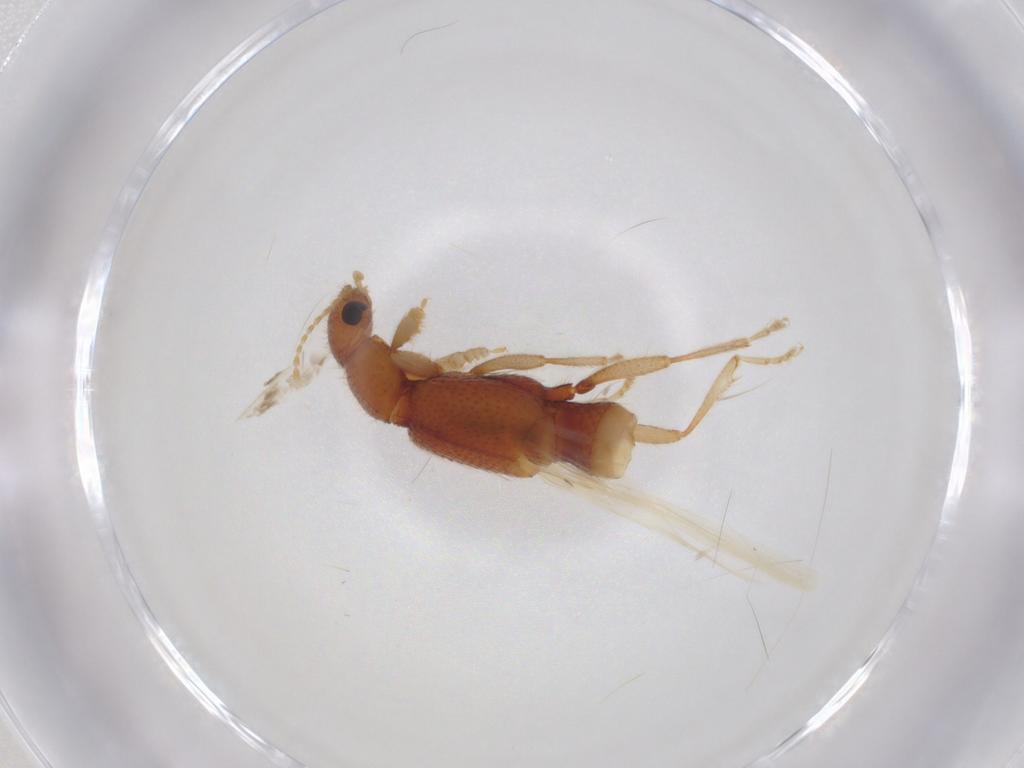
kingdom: Animalia
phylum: Arthropoda
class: Insecta
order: Coleoptera
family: Staphylinidae
